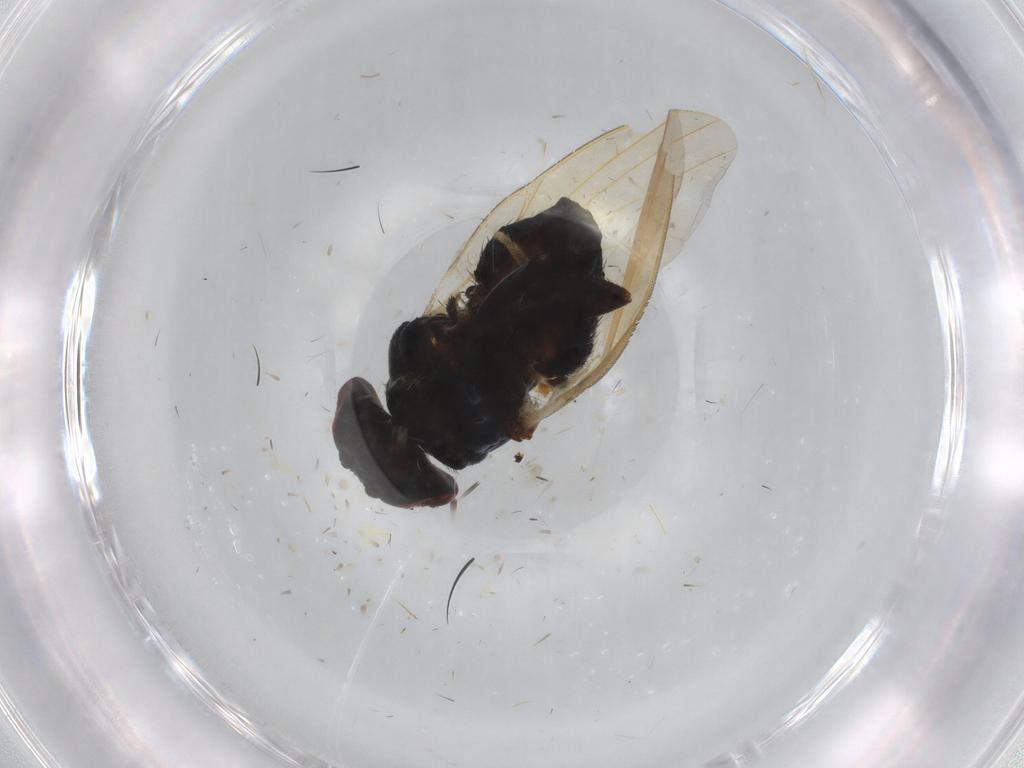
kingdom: Animalia
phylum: Arthropoda
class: Insecta
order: Diptera
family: Lonchaeidae
